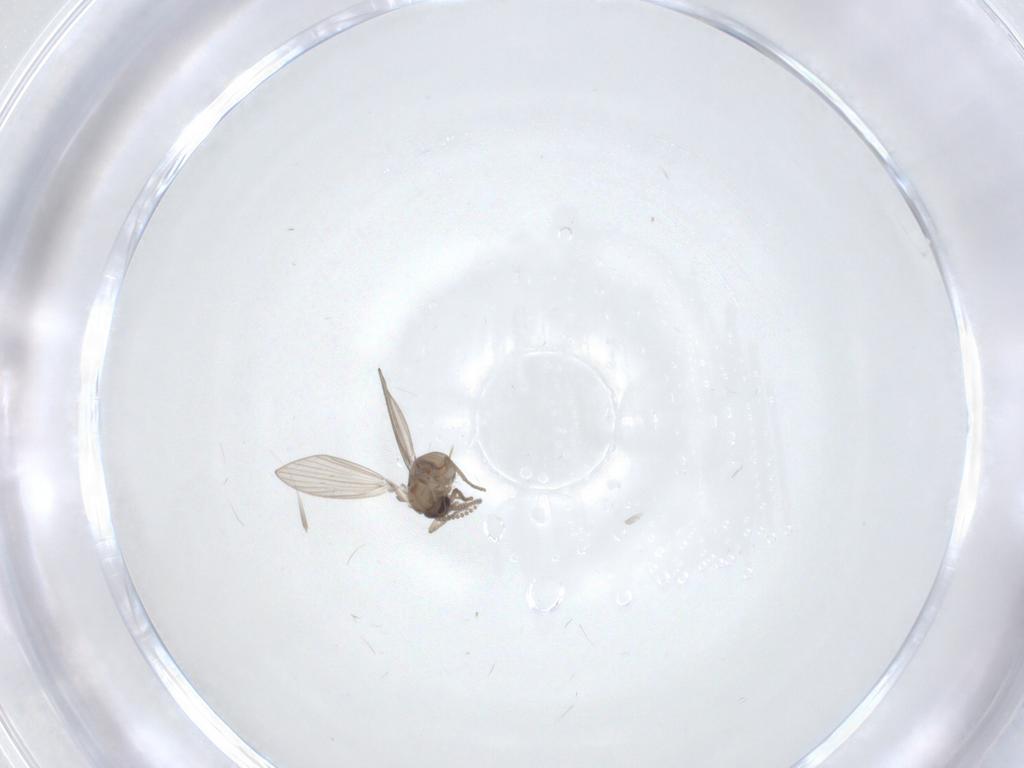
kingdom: Animalia
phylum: Arthropoda
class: Insecta
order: Diptera
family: Psychodidae
